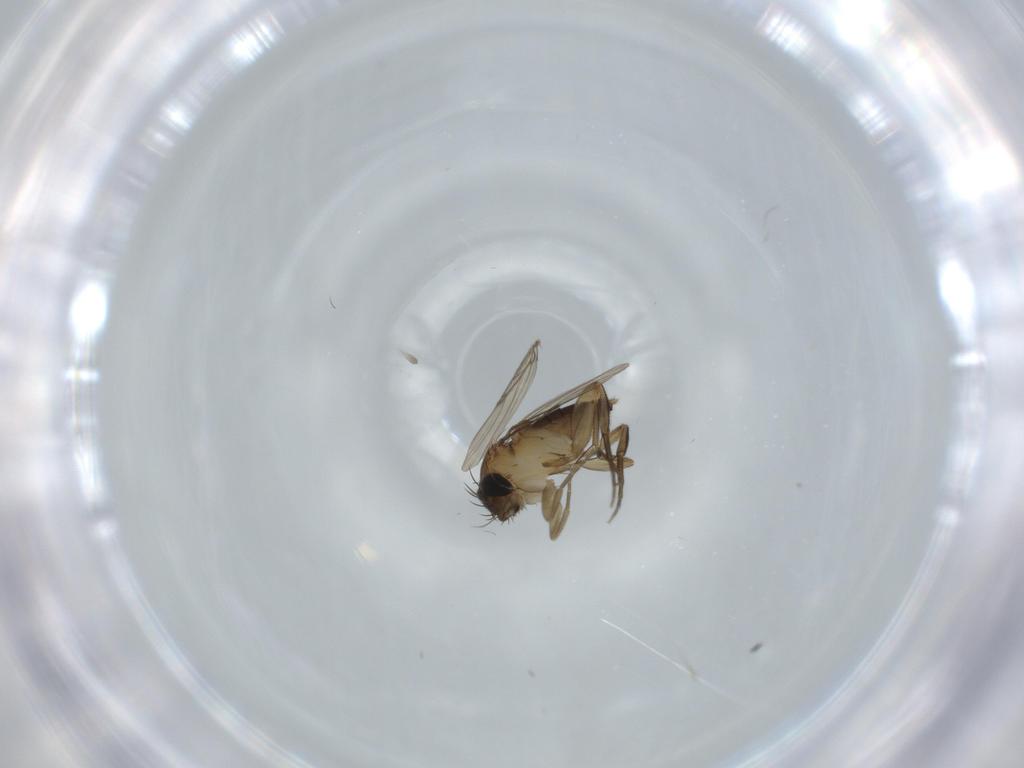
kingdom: Animalia
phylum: Arthropoda
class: Insecta
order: Diptera
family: Phoridae
